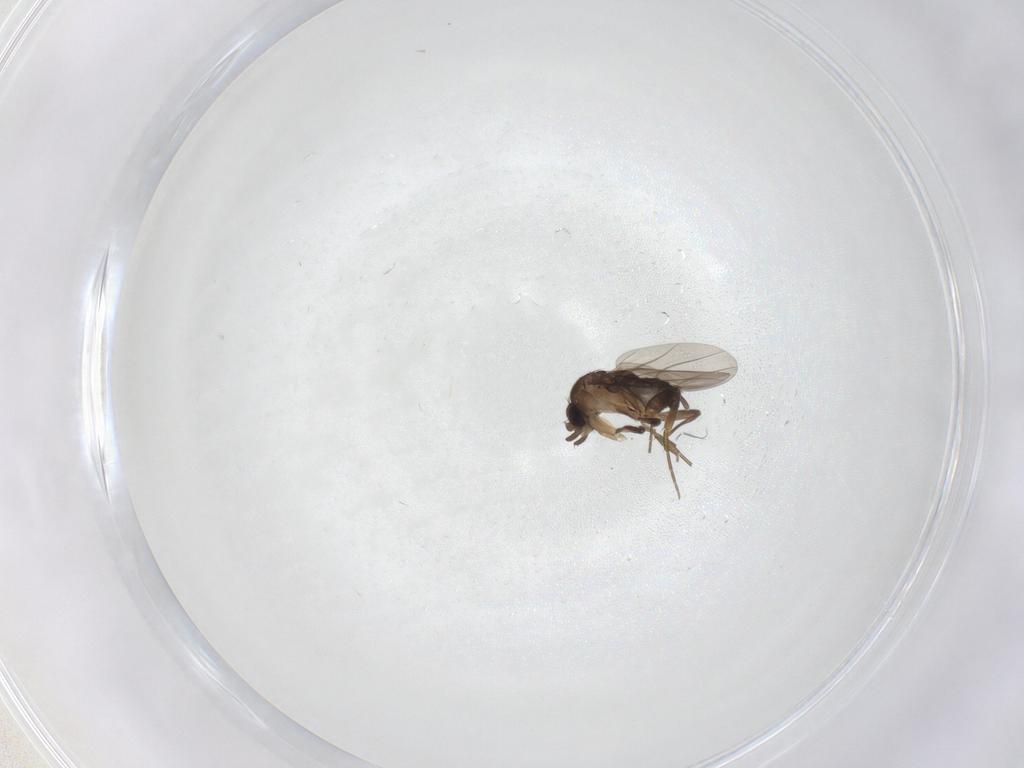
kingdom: Animalia
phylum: Arthropoda
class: Insecta
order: Diptera
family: Phoridae
